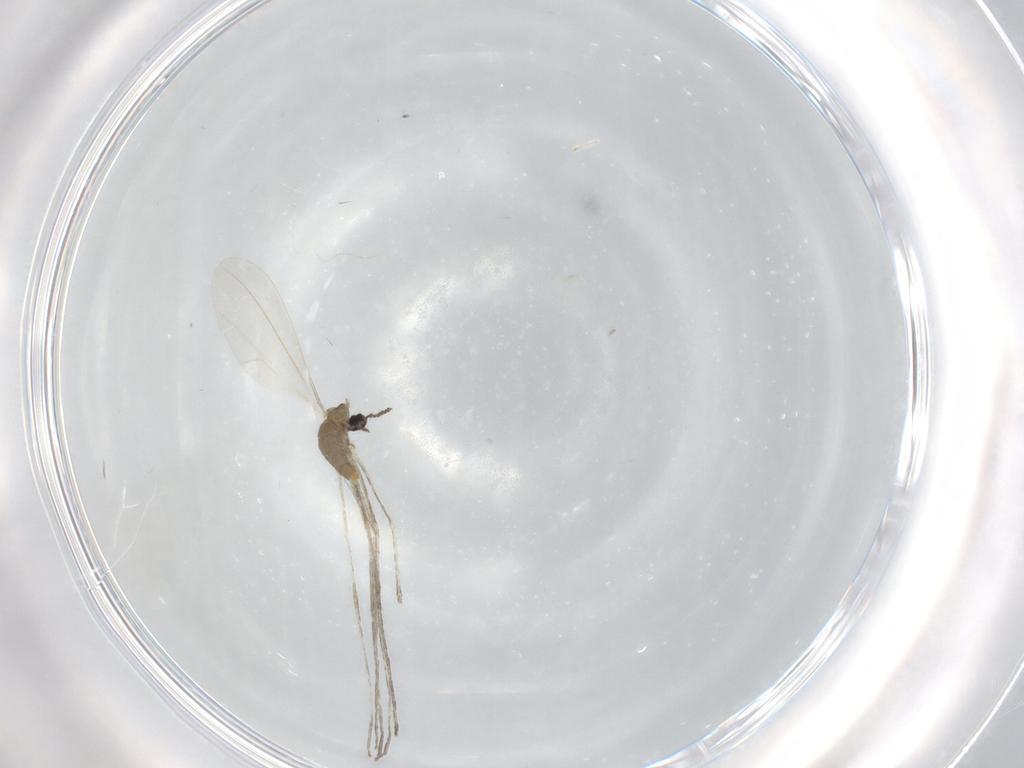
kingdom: Animalia
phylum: Arthropoda
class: Insecta
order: Diptera
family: Cecidomyiidae
